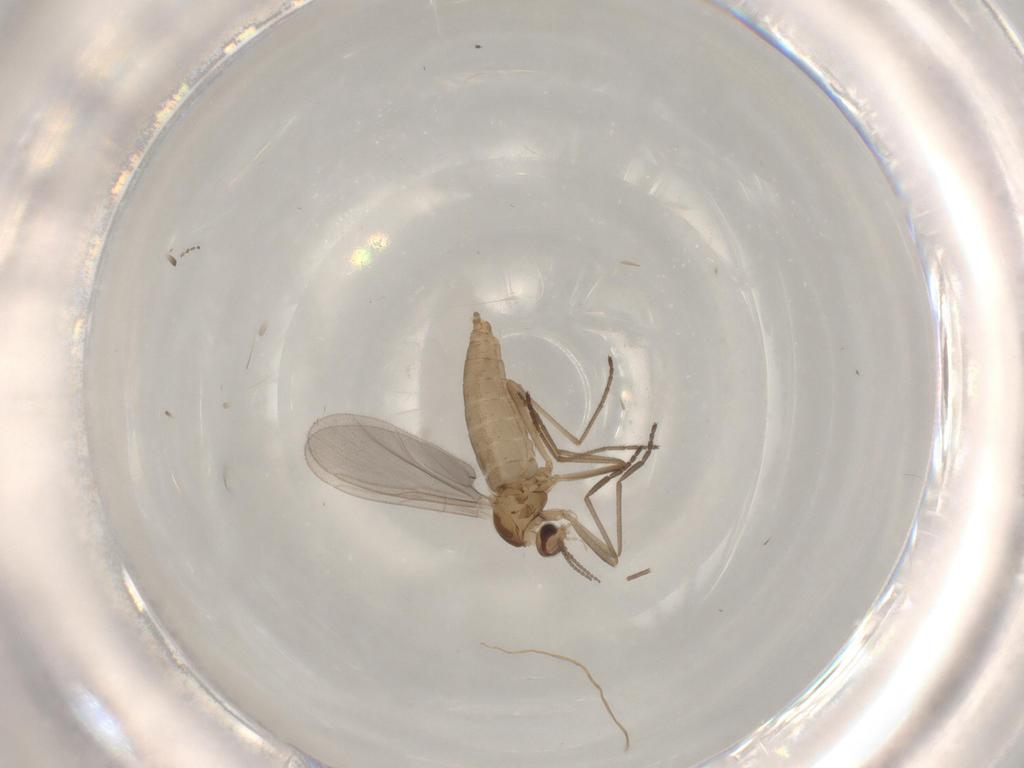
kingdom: Animalia
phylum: Arthropoda
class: Insecta
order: Diptera
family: Cecidomyiidae
